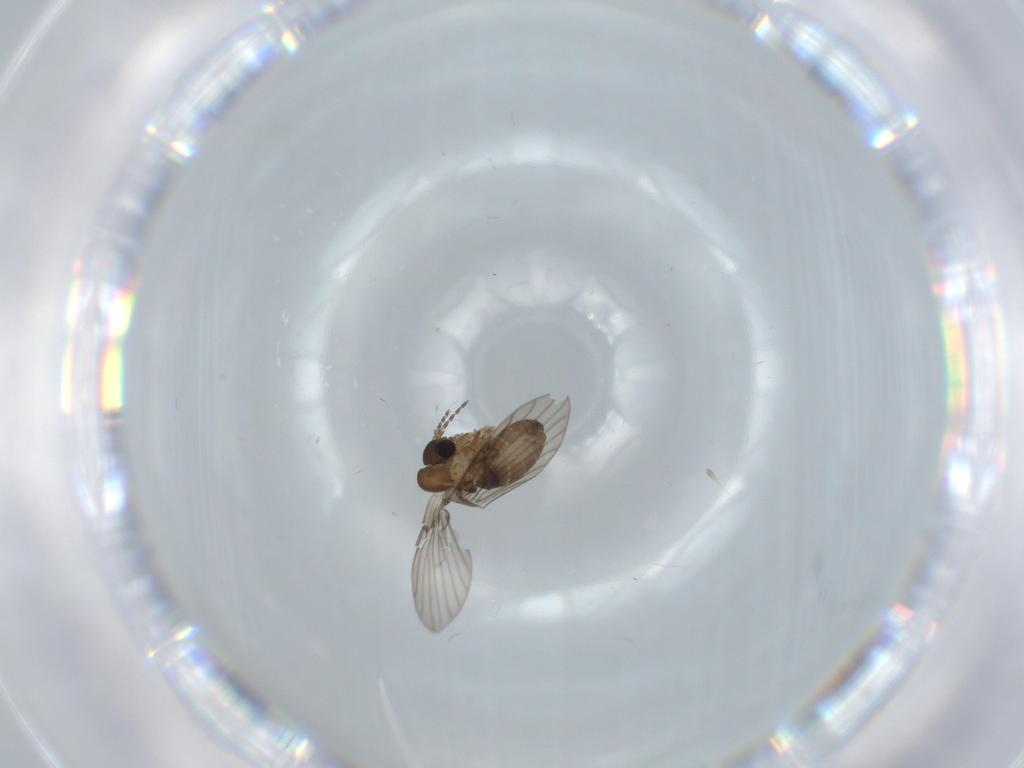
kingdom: Animalia
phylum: Arthropoda
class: Insecta
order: Diptera
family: Psychodidae
